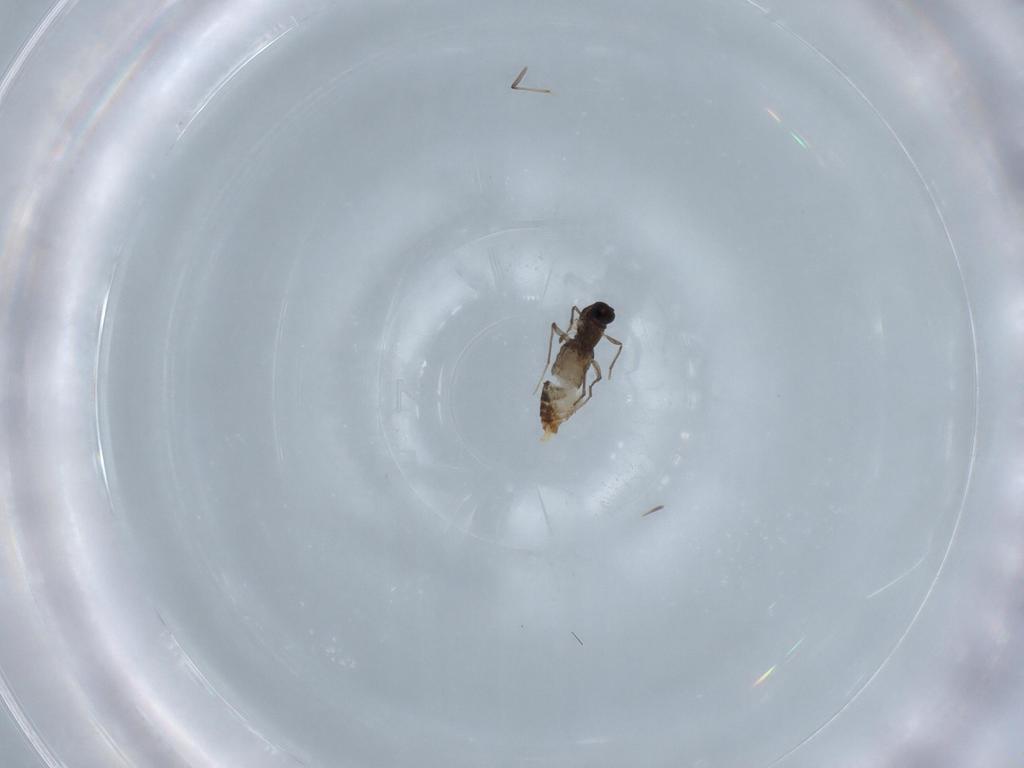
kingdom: Animalia
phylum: Arthropoda
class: Insecta
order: Diptera
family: Chironomidae
